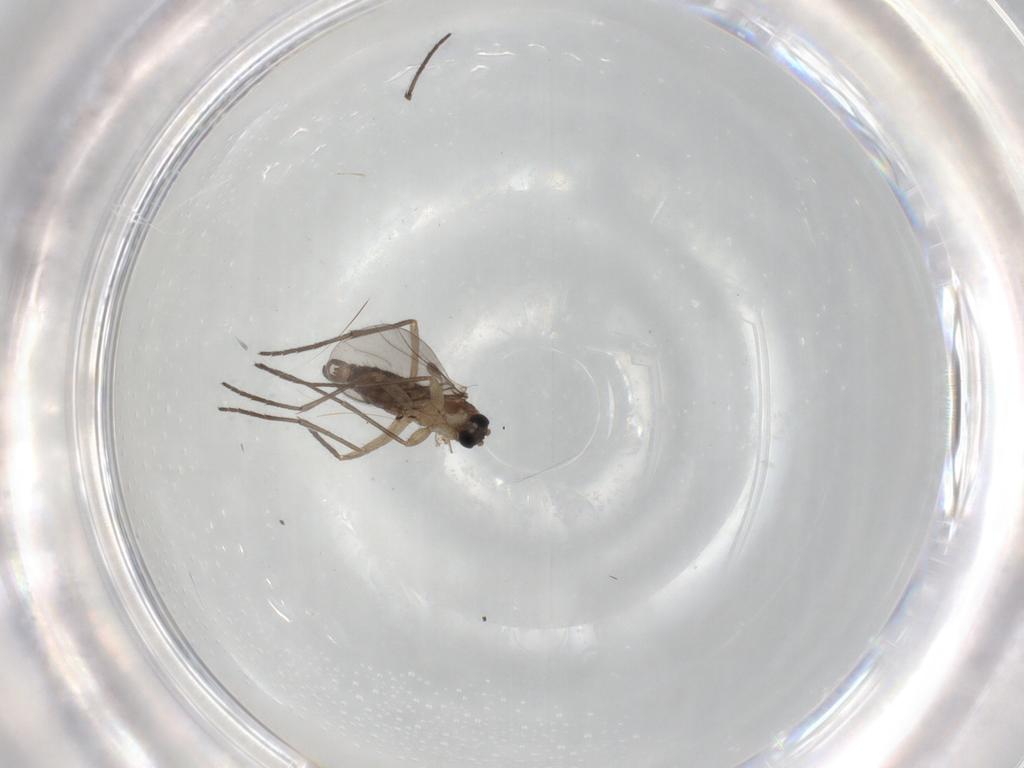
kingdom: Animalia
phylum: Arthropoda
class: Insecta
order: Diptera
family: Sciaridae
